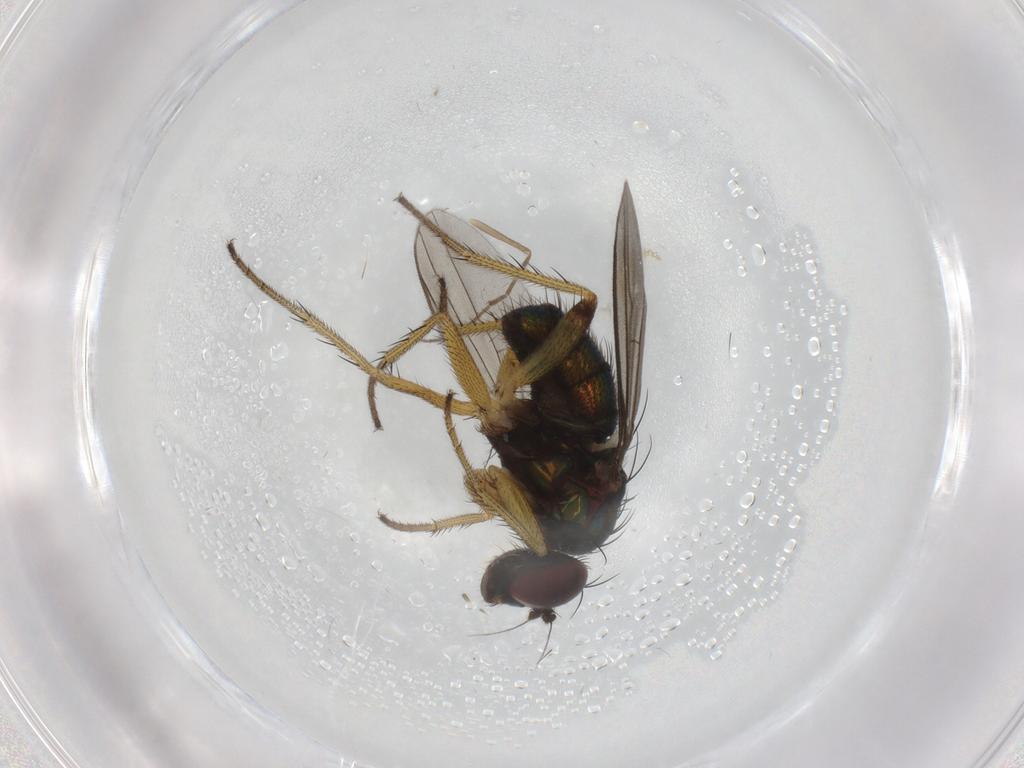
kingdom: Animalia
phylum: Arthropoda
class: Insecta
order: Diptera
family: Dolichopodidae
